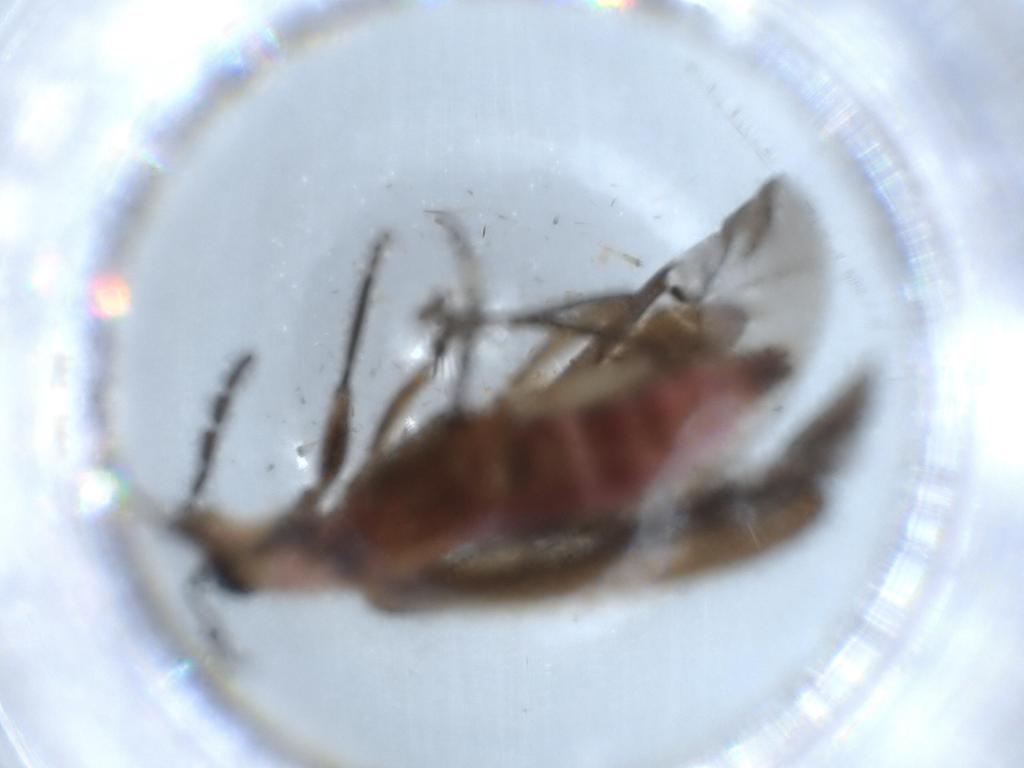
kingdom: Animalia
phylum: Arthropoda
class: Insecta
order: Coleoptera
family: Cleridae
